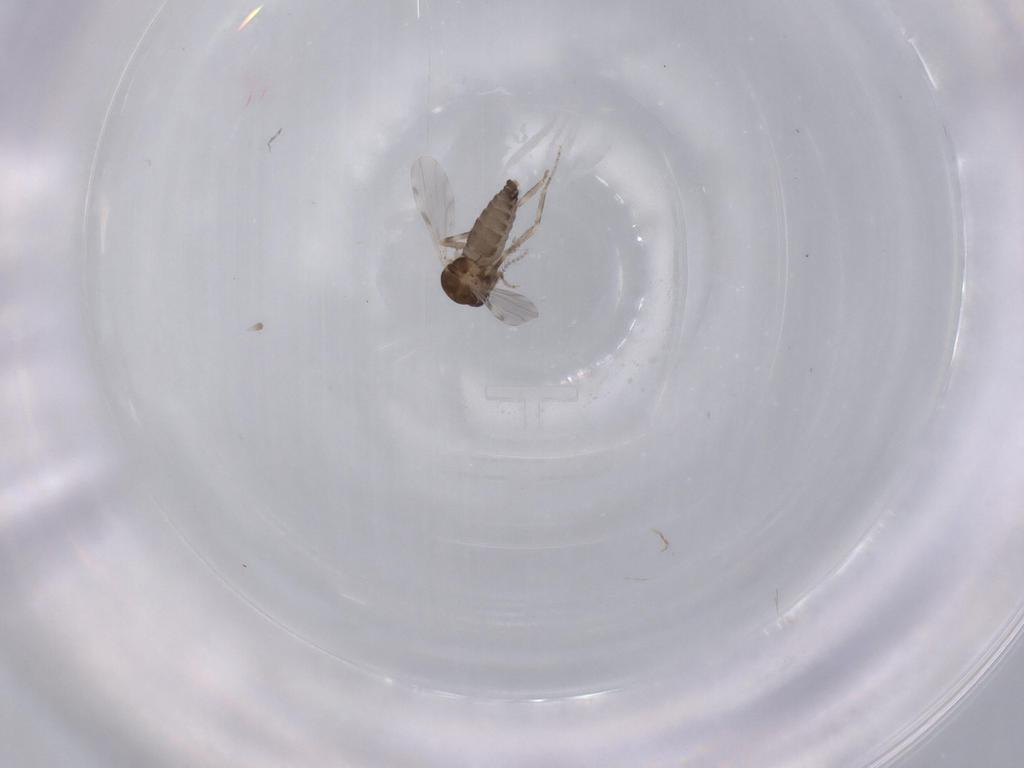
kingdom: Animalia
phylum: Arthropoda
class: Insecta
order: Diptera
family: Ceratopogonidae
